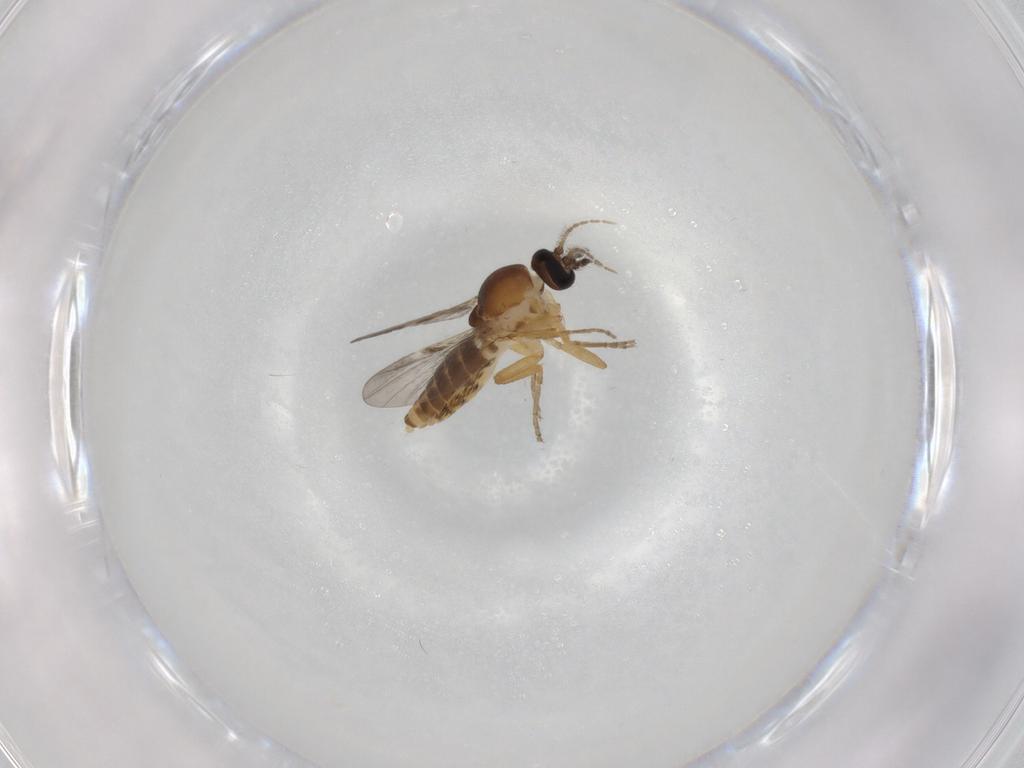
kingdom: Animalia
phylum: Arthropoda
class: Insecta
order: Diptera
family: Ceratopogonidae
